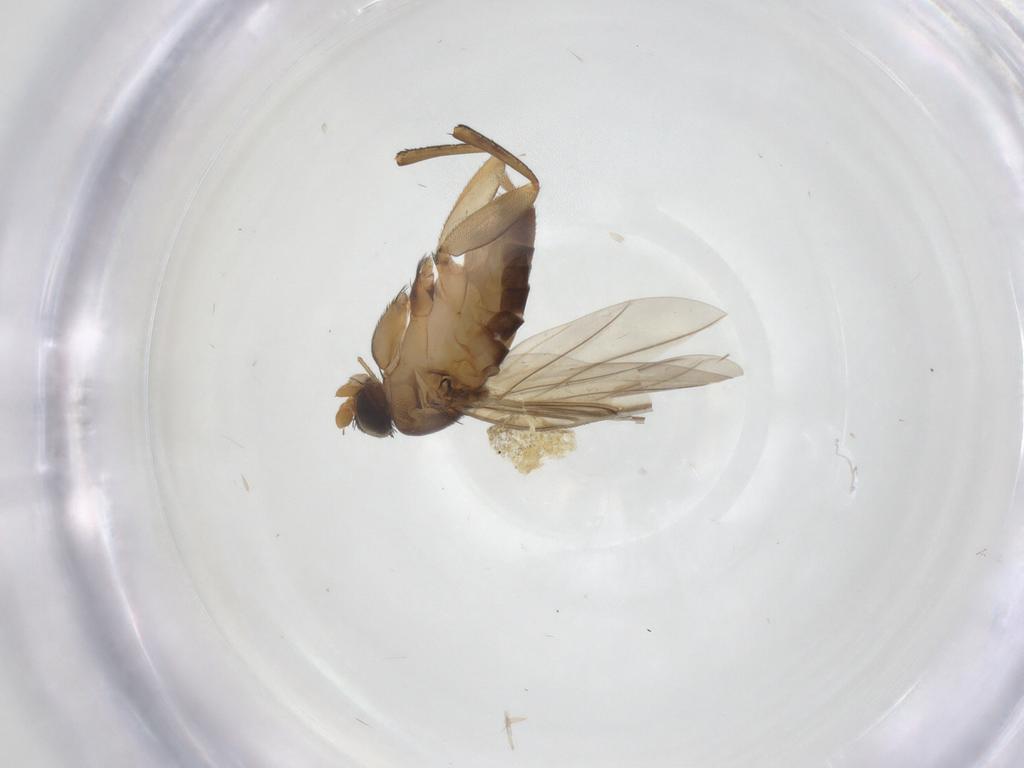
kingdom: Animalia
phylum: Arthropoda
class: Insecta
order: Diptera
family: Phoridae
